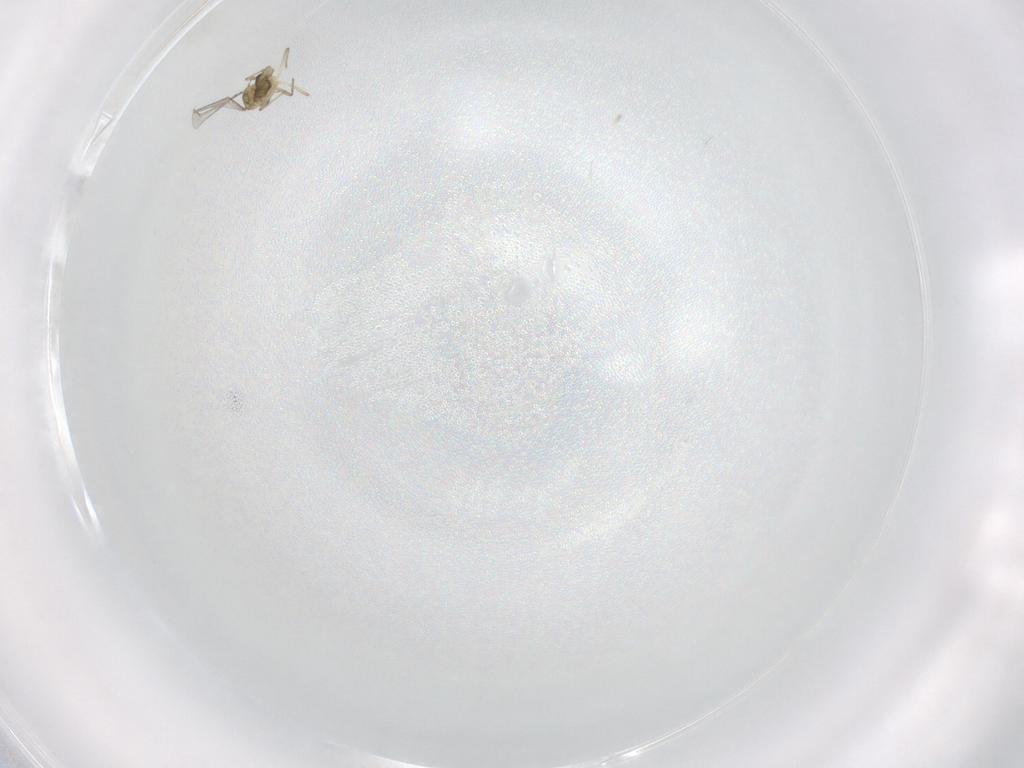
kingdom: Animalia
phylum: Arthropoda
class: Insecta
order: Diptera
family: Chironomidae
